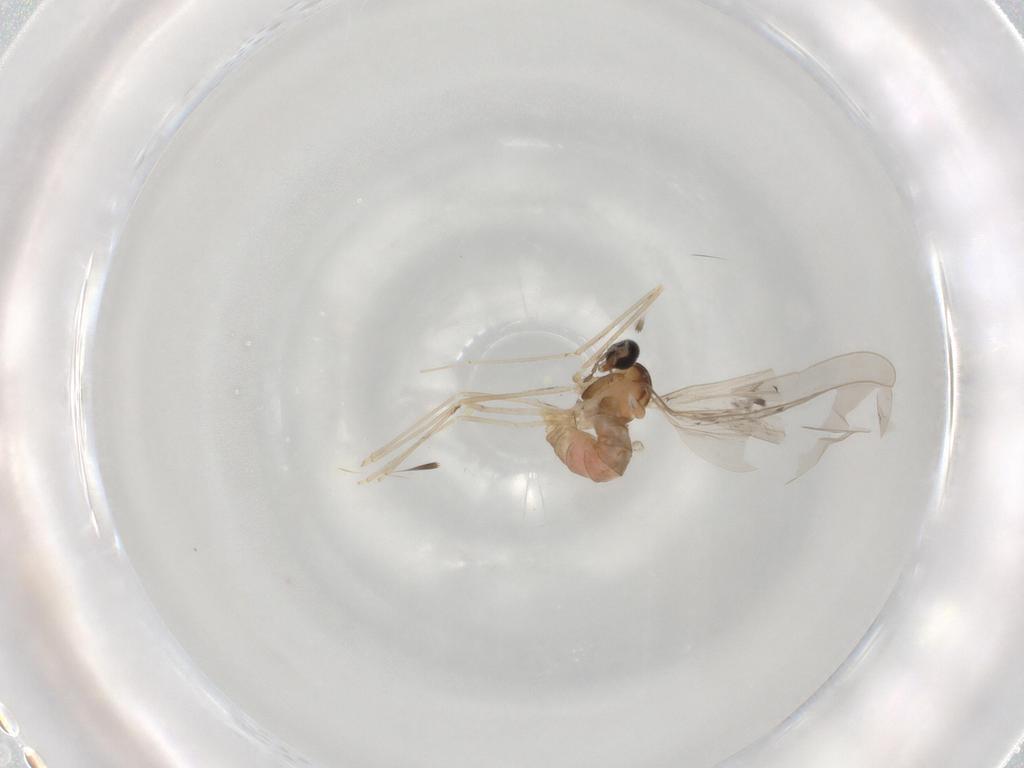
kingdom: Animalia
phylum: Arthropoda
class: Insecta
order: Diptera
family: Cecidomyiidae
